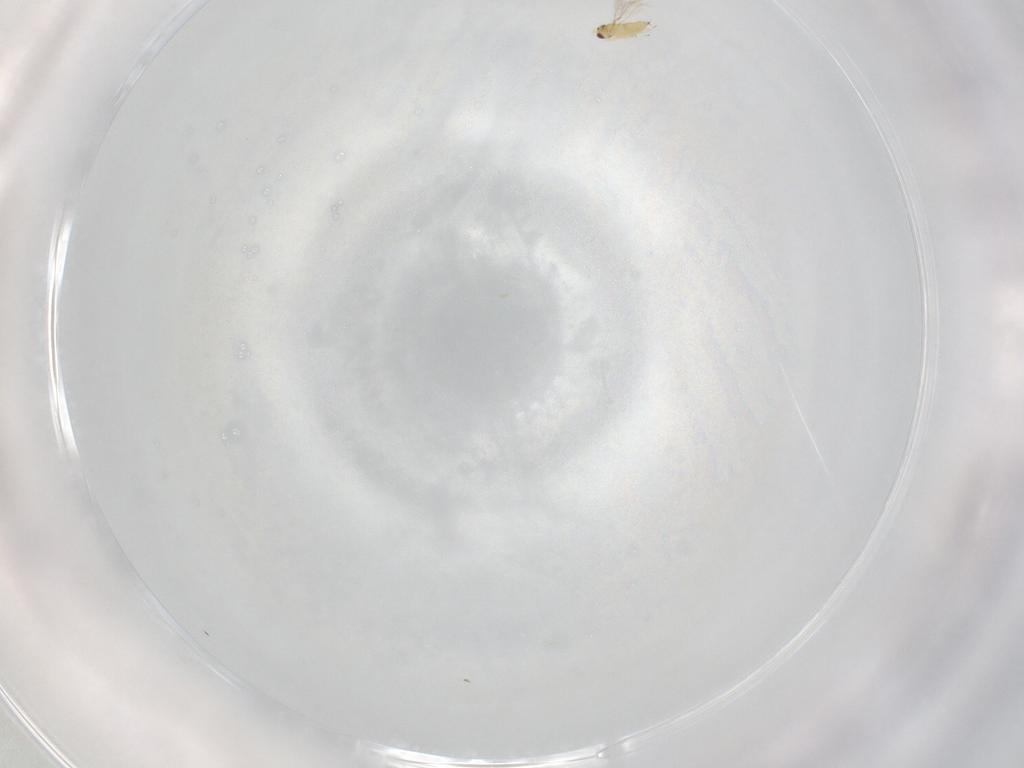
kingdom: Animalia
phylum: Arthropoda
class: Insecta
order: Hymenoptera
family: Mymaridae
